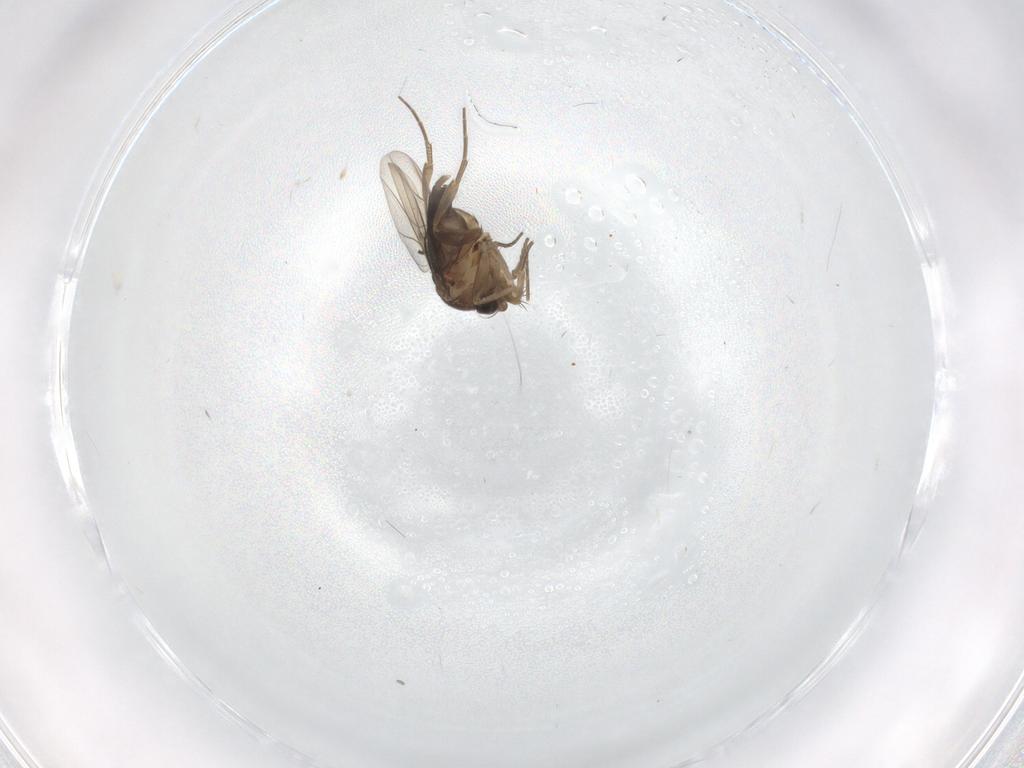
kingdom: Animalia
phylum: Arthropoda
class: Insecta
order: Diptera
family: Phoridae
